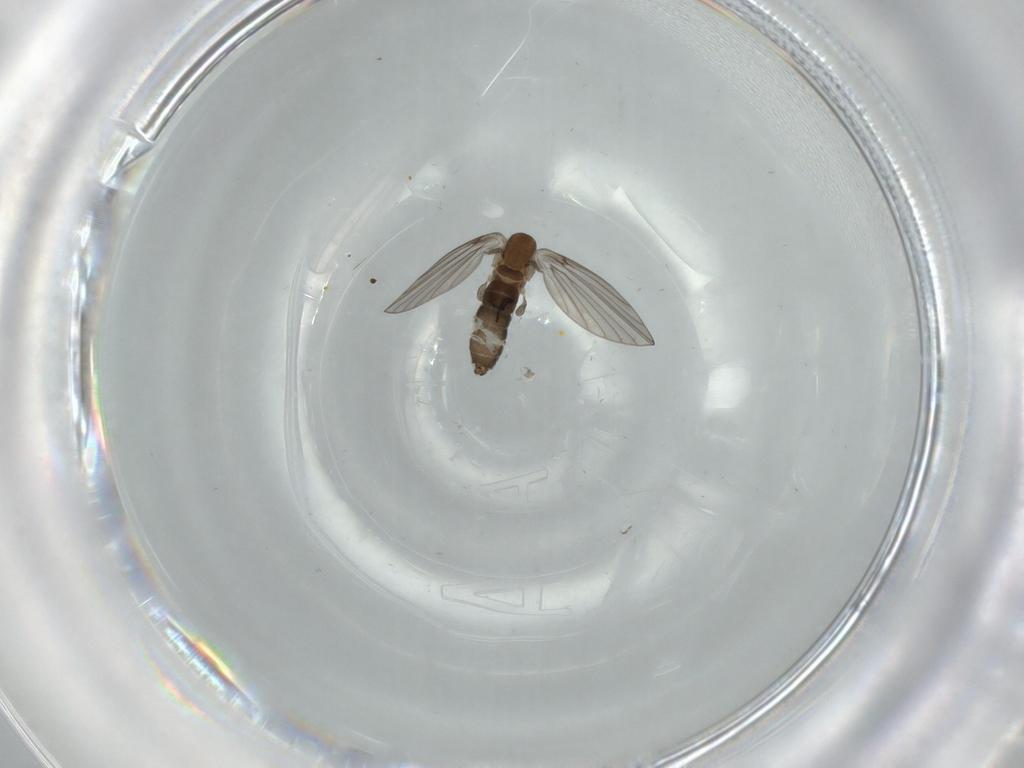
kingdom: Animalia
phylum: Arthropoda
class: Insecta
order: Diptera
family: Psychodidae
